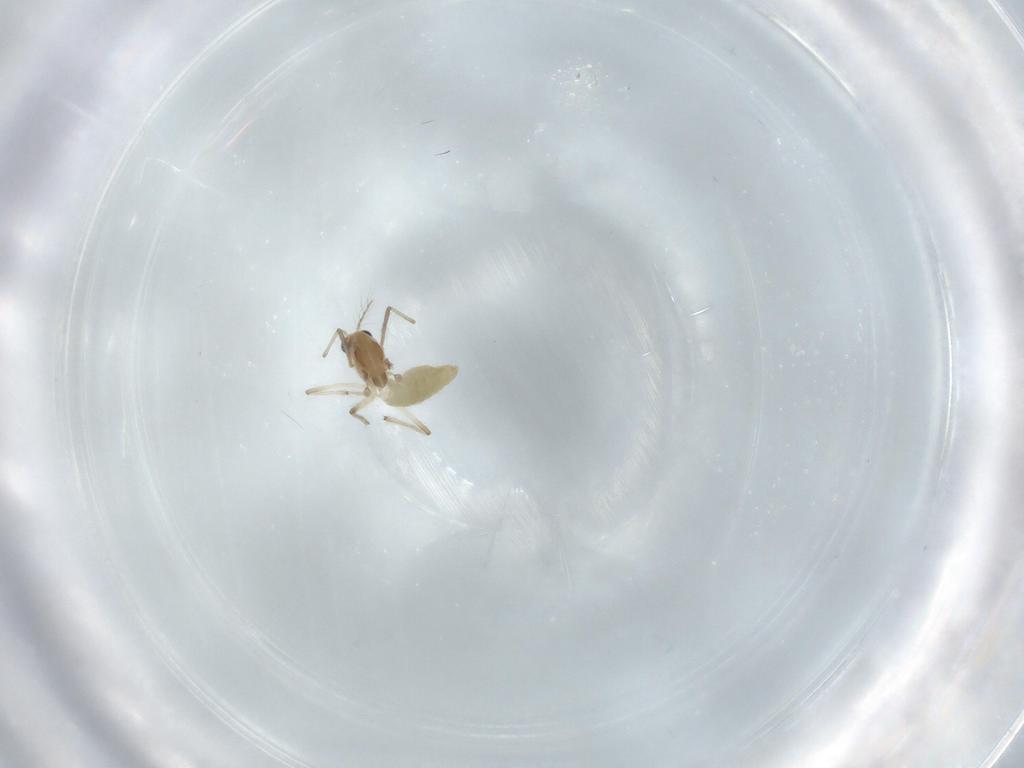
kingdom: Animalia
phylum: Arthropoda
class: Insecta
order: Diptera
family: Chironomidae
